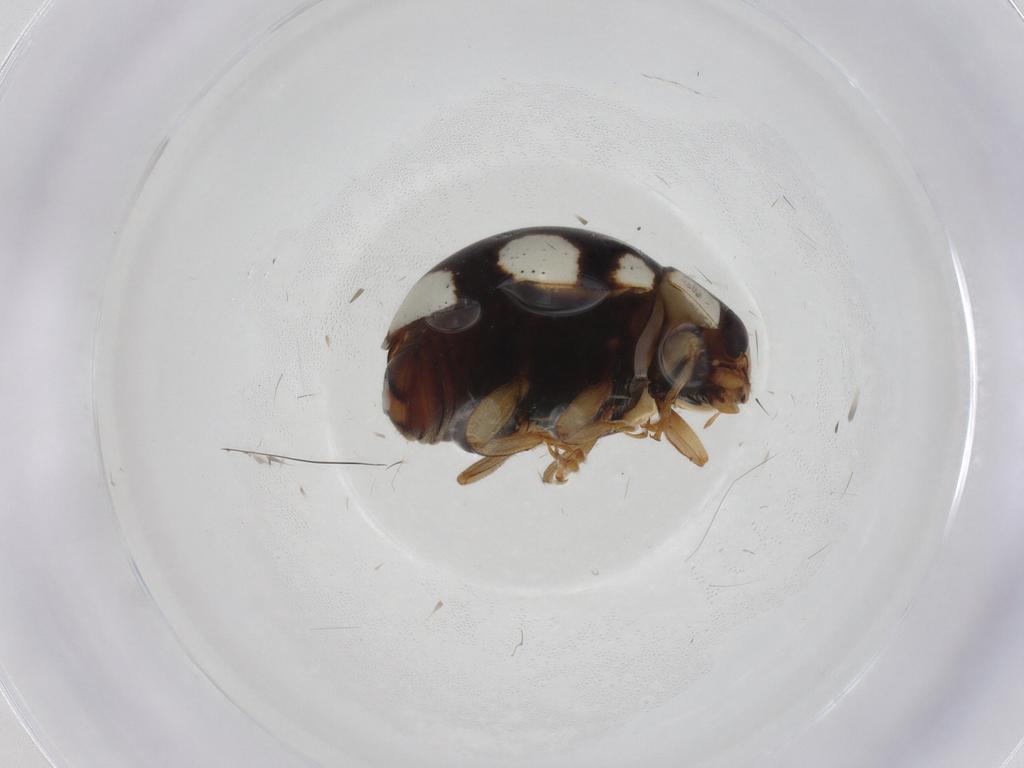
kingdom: Animalia
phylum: Arthropoda
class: Insecta
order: Coleoptera
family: Coccinellidae
